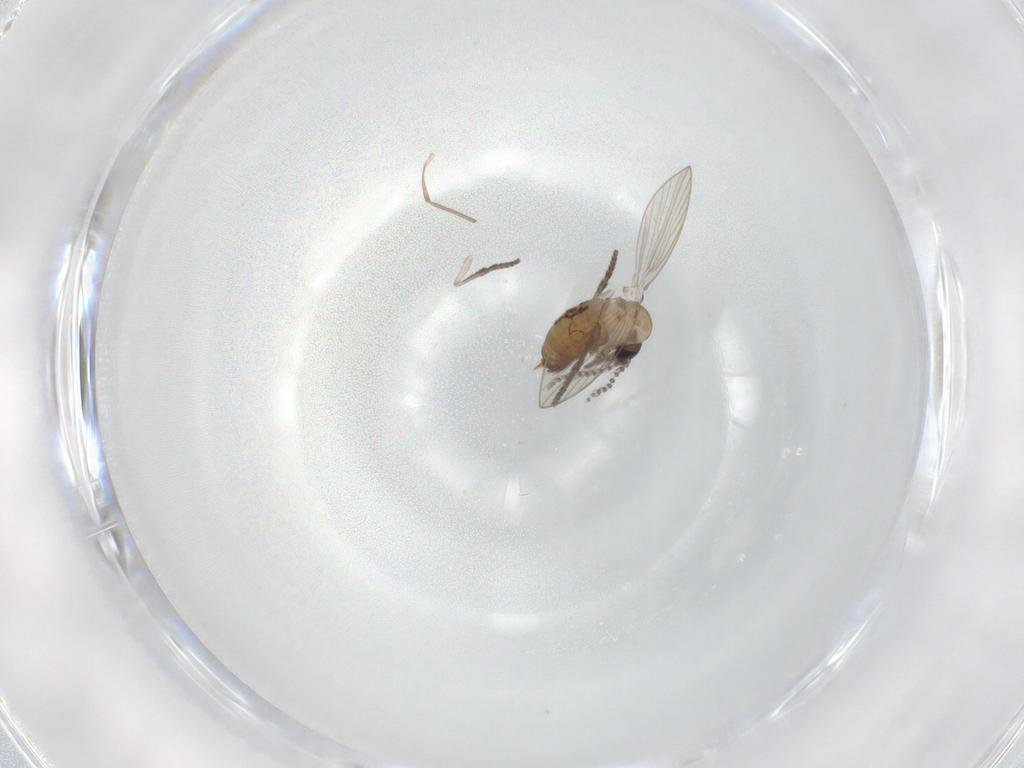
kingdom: Animalia
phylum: Arthropoda
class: Insecta
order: Diptera
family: Psychodidae
